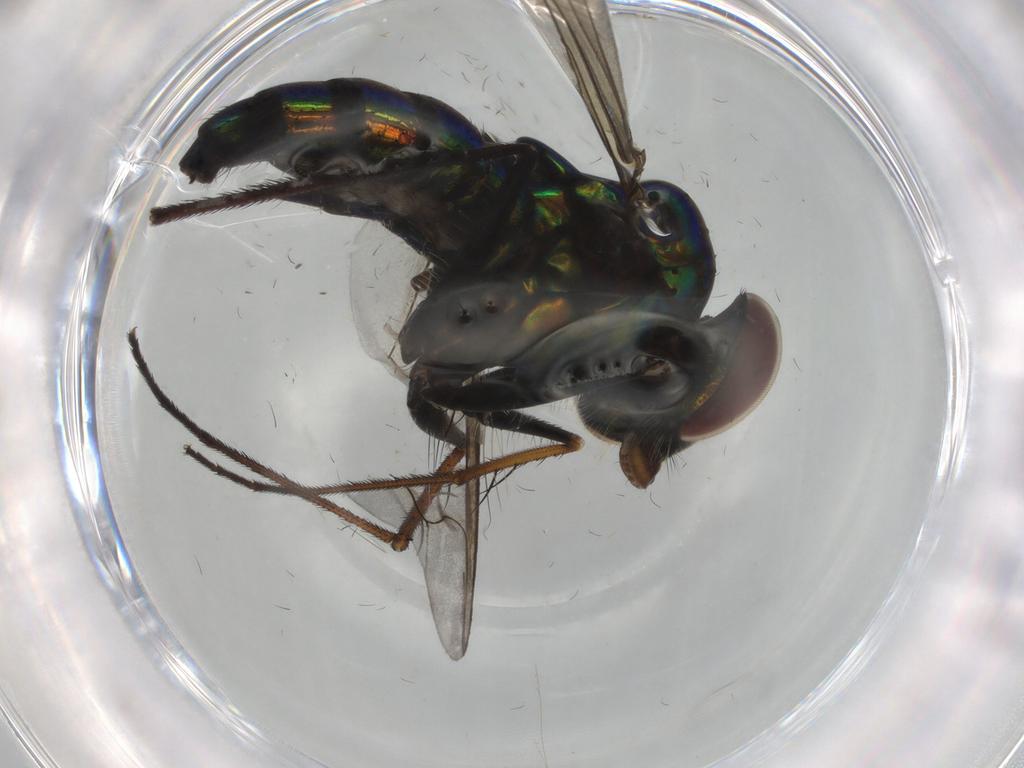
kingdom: Animalia
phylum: Arthropoda
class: Insecta
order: Diptera
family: Dolichopodidae
